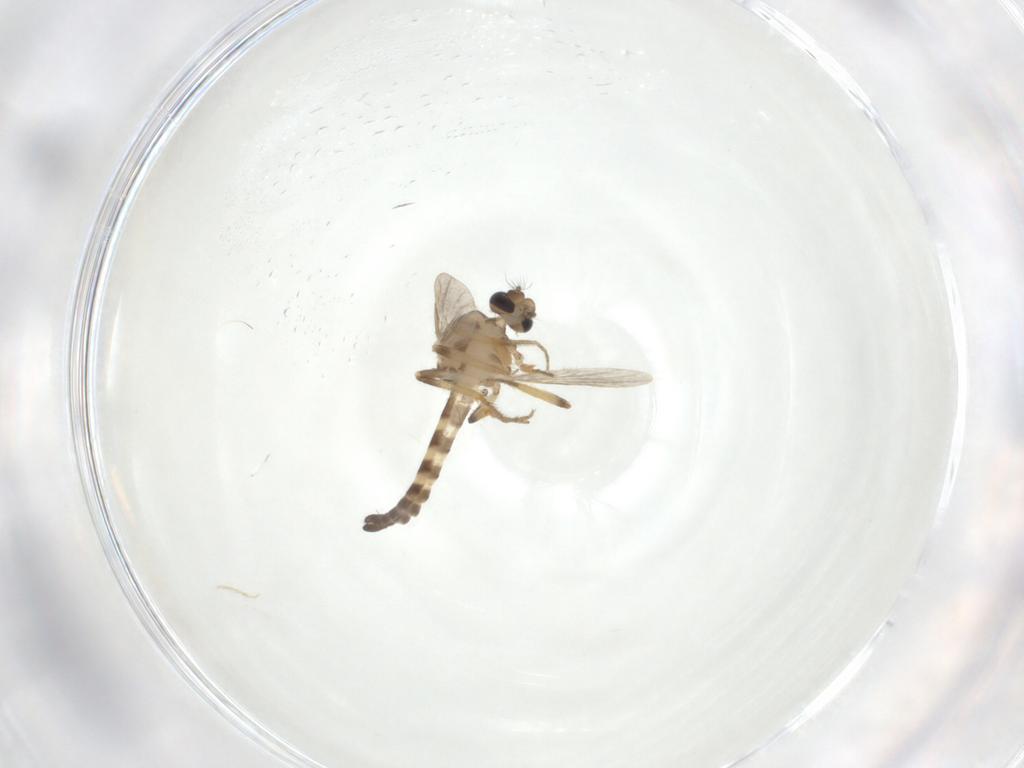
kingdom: Animalia
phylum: Arthropoda
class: Insecta
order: Diptera
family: Ceratopogonidae
